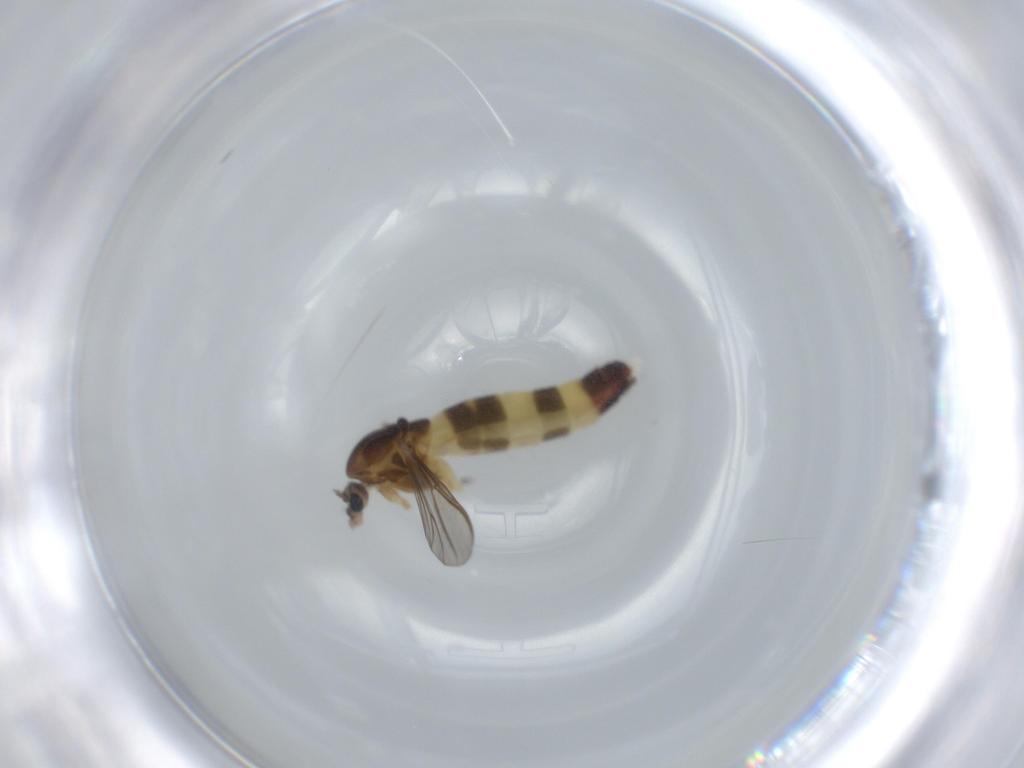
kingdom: Animalia
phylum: Arthropoda
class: Insecta
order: Diptera
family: Chironomidae
